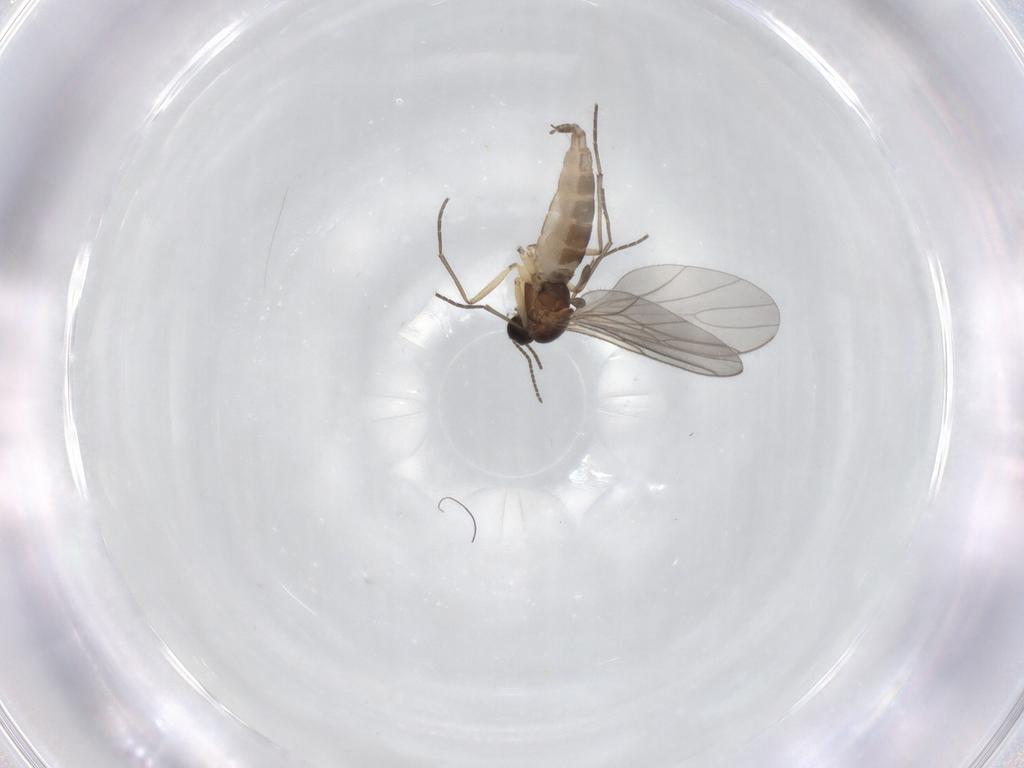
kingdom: Animalia
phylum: Arthropoda
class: Insecta
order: Diptera
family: Sciaridae
